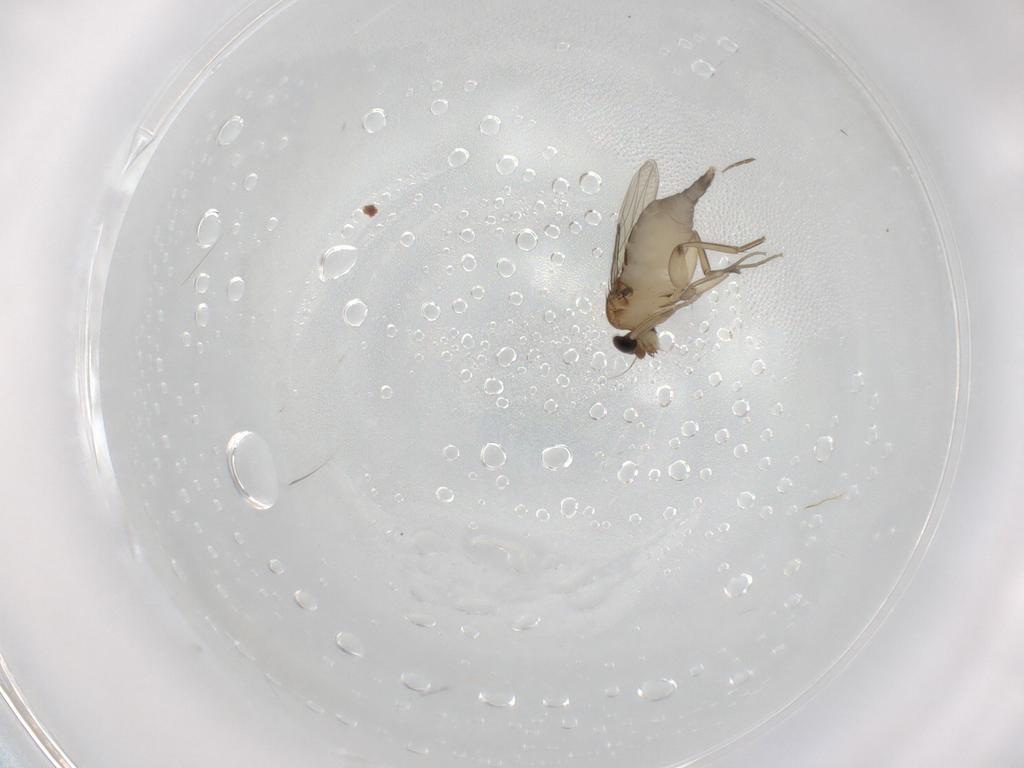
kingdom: Animalia
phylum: Arthropoda
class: Insecta
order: Diptera
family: Phoridae
